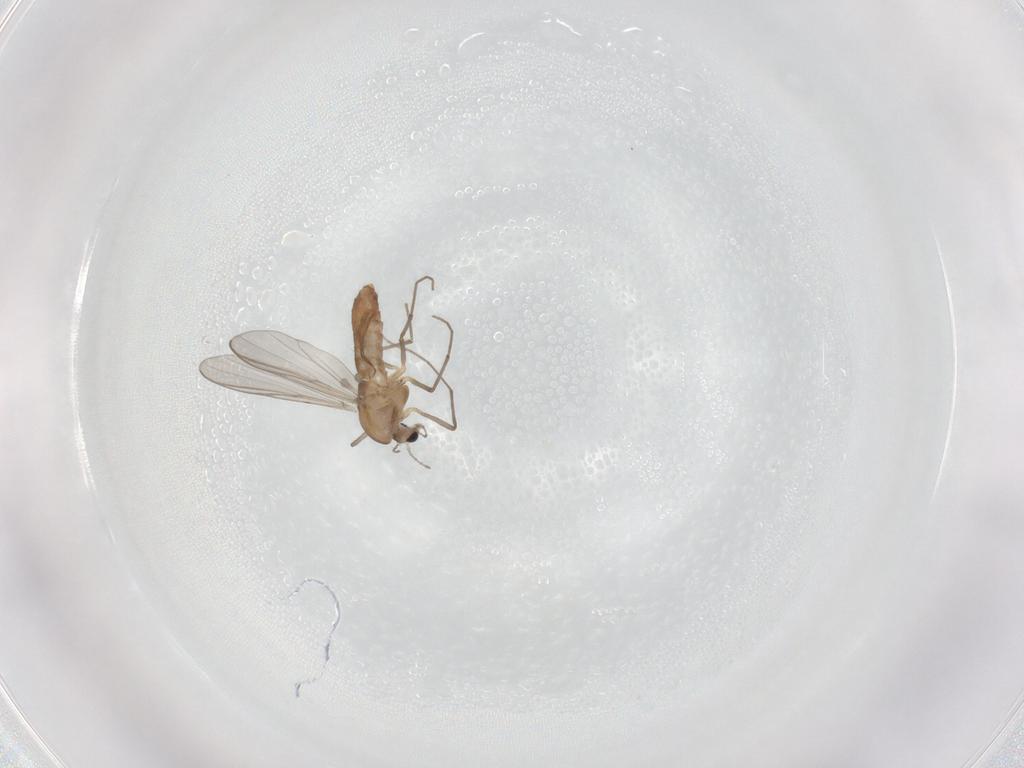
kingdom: Animalia
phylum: Arthropoda
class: Insecta
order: Diptera
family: Chironomidae
